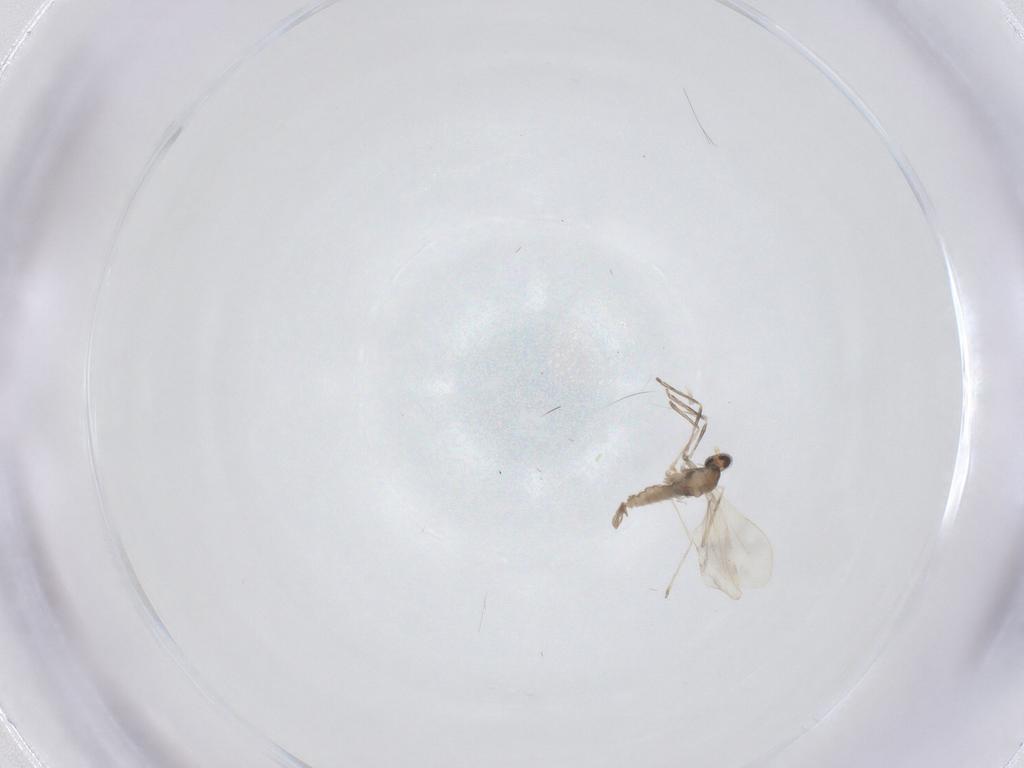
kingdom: Animalia
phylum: Arthropoda
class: Insecta
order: Diptera
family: Cecidomyiidae
